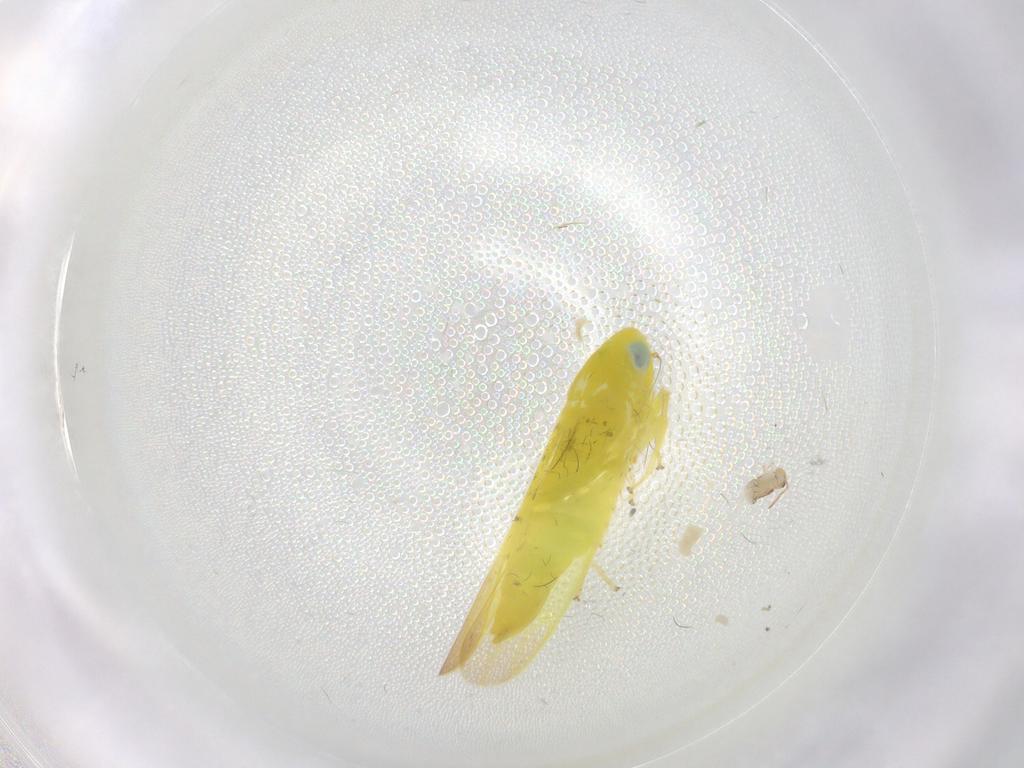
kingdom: Animalia
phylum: Arthropoda
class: Insecta
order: Hemiptera
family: Cicadellidae
